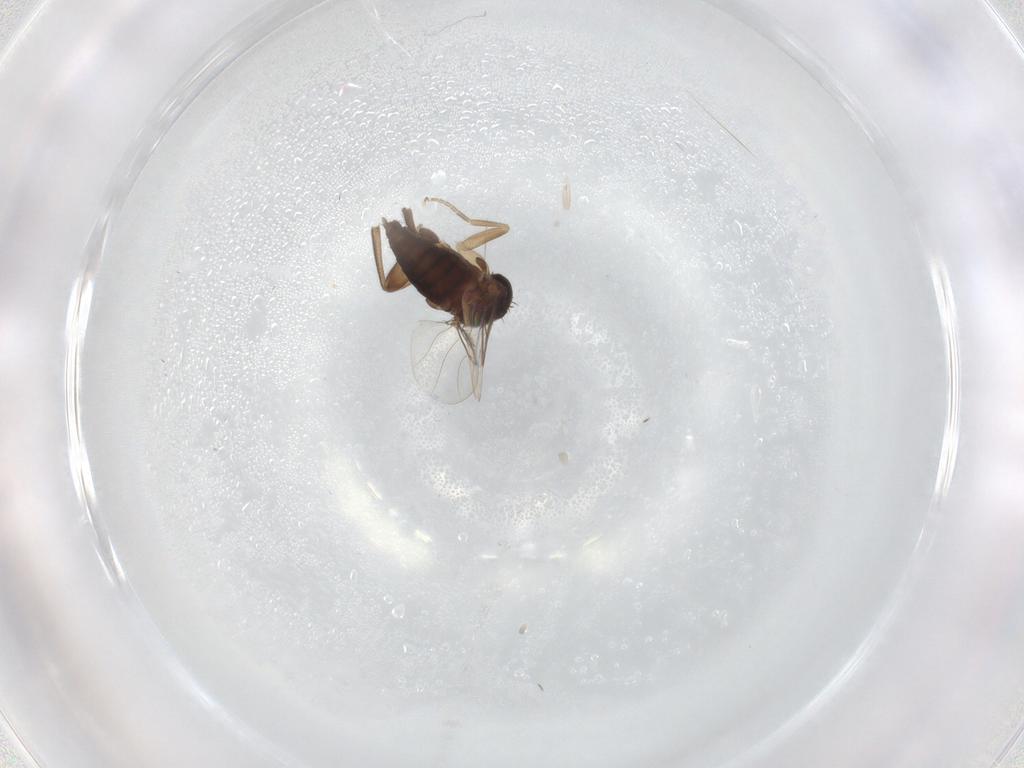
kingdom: Animalia
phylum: Arthropoda
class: Insecta
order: Diptera
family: Phoridae
